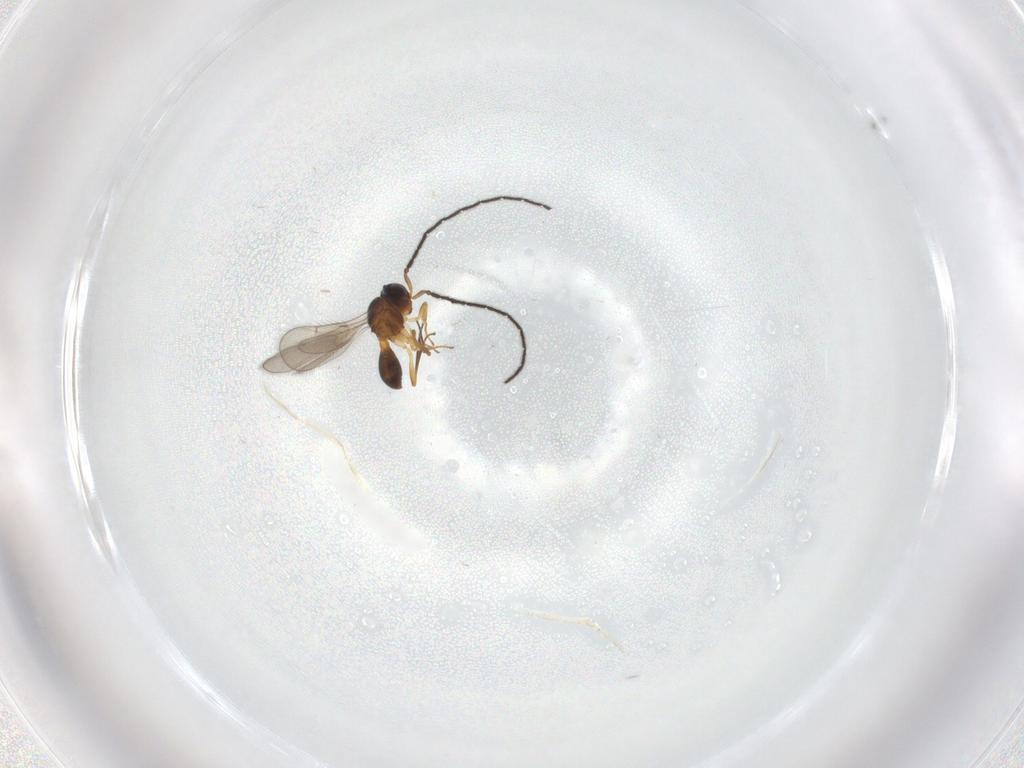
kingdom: Animalia
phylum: Arthropoda
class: Insecta
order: Hymenoptera
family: Scelionidae
